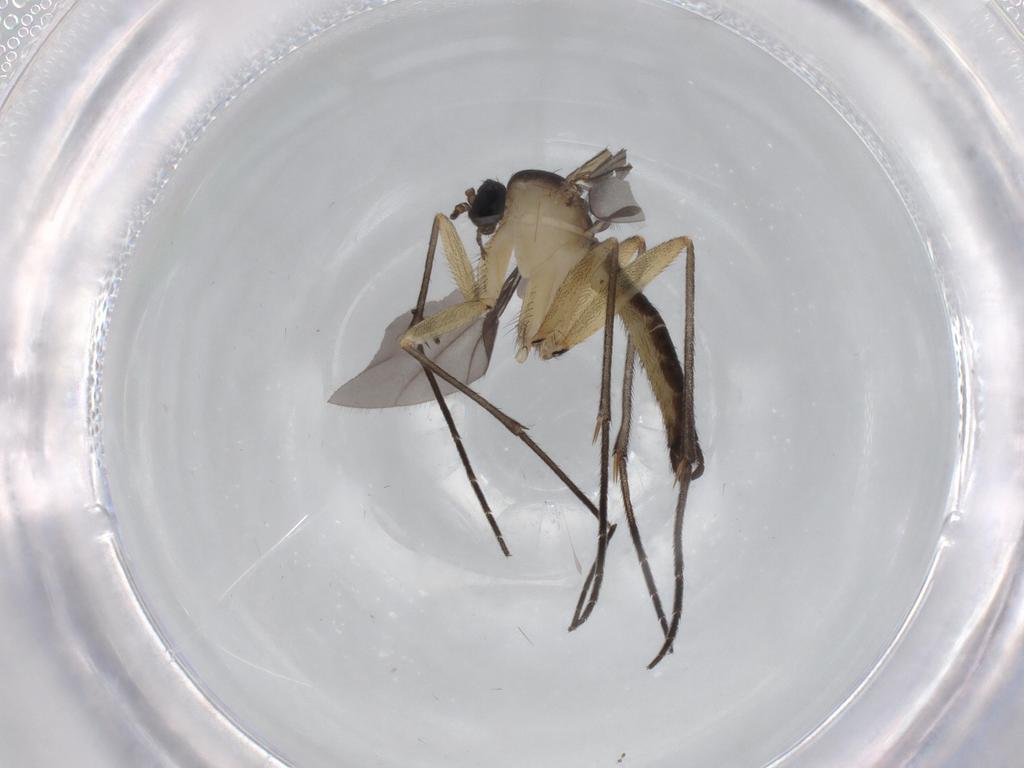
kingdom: Animalia
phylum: Arthropoda
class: Insecta
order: Diptera
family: Sciaridae
